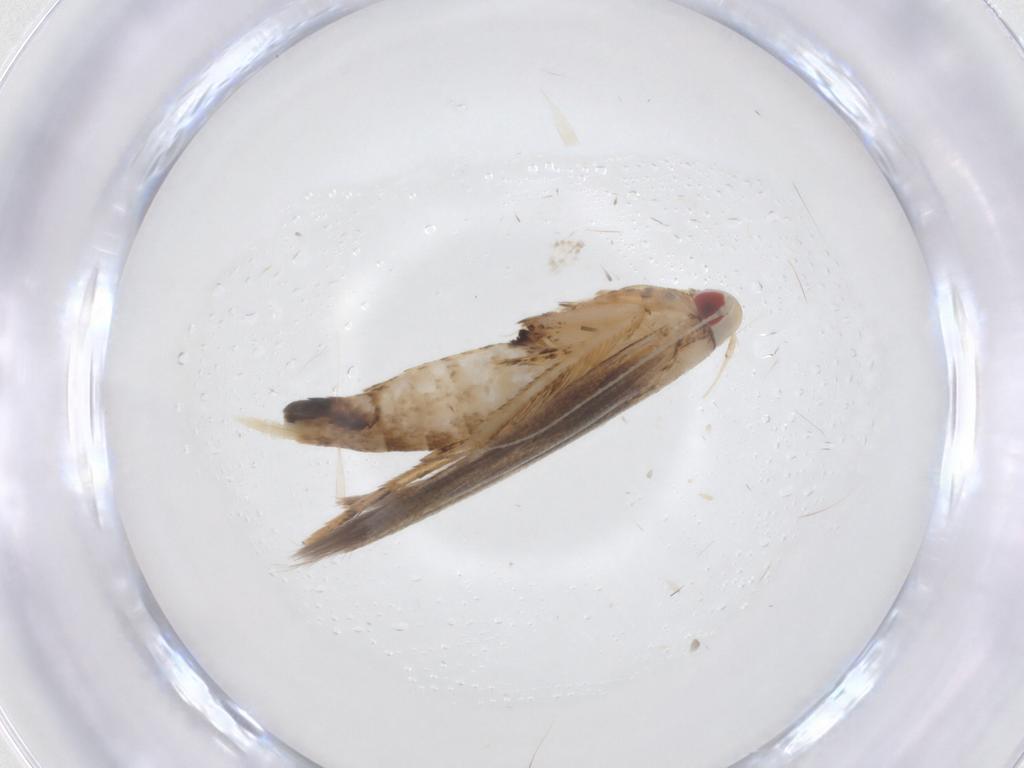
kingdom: Animalia
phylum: Arthropoda
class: Insecta
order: Lepidoptera
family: Cosmopterigidae
